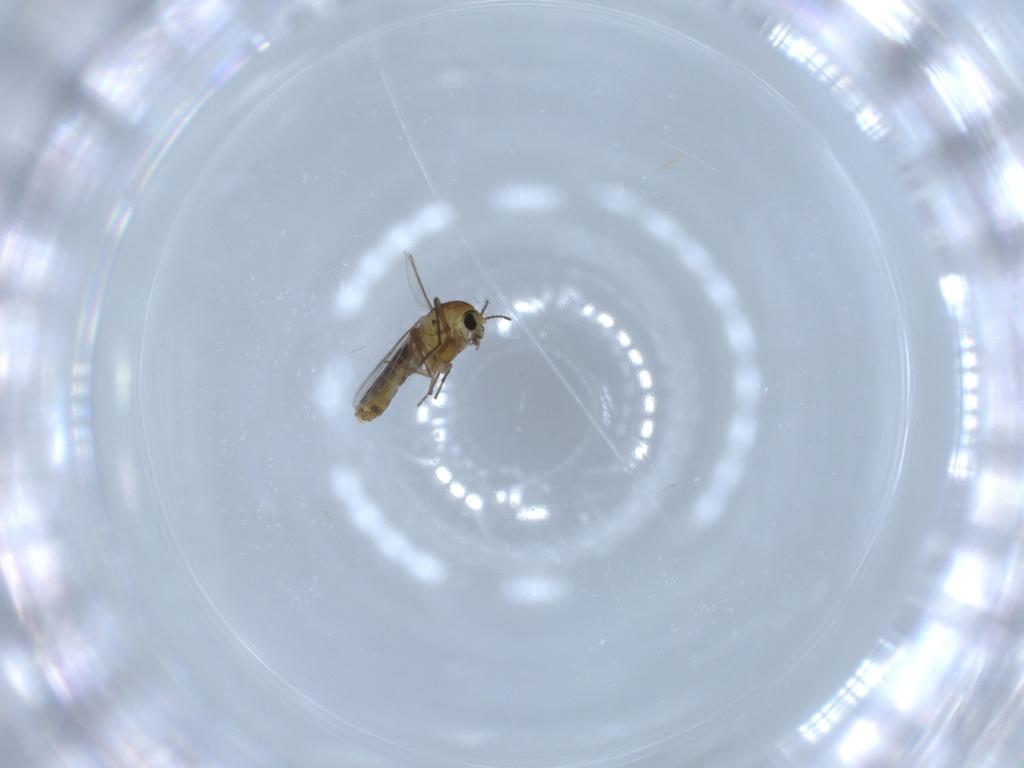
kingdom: Animalia
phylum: Arthropoda
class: Insecta
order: Diptera
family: Chironomidae
